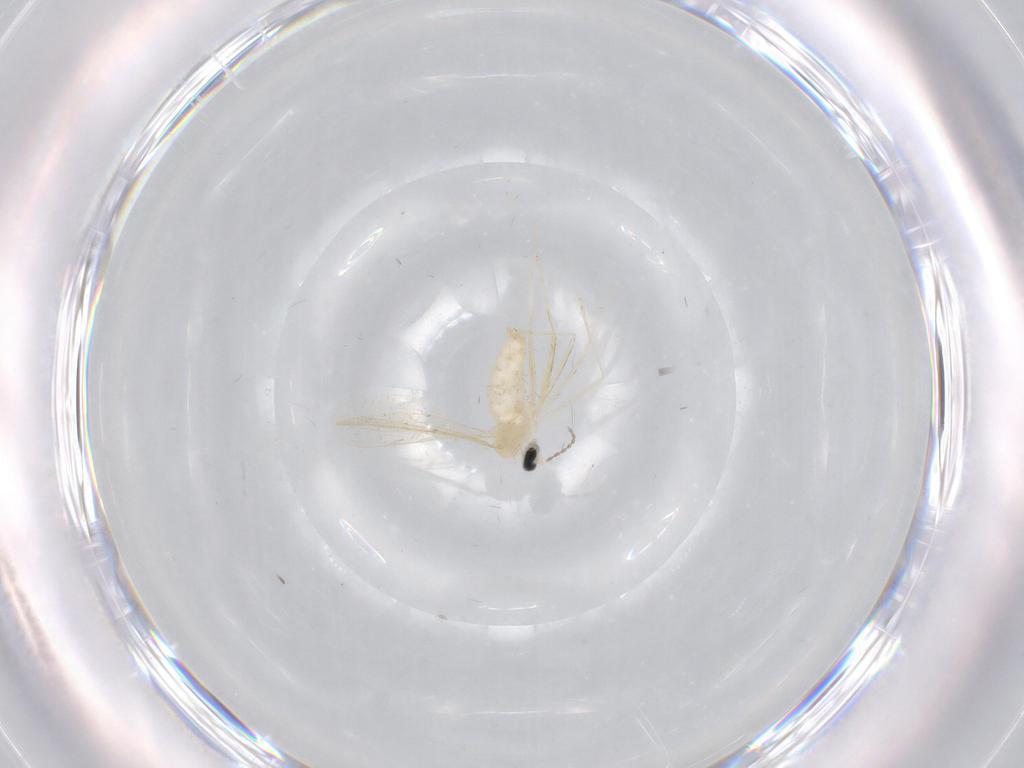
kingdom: Animalia
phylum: Arthropoda
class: Insecta
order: Diptera
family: Cecidomyiidae
